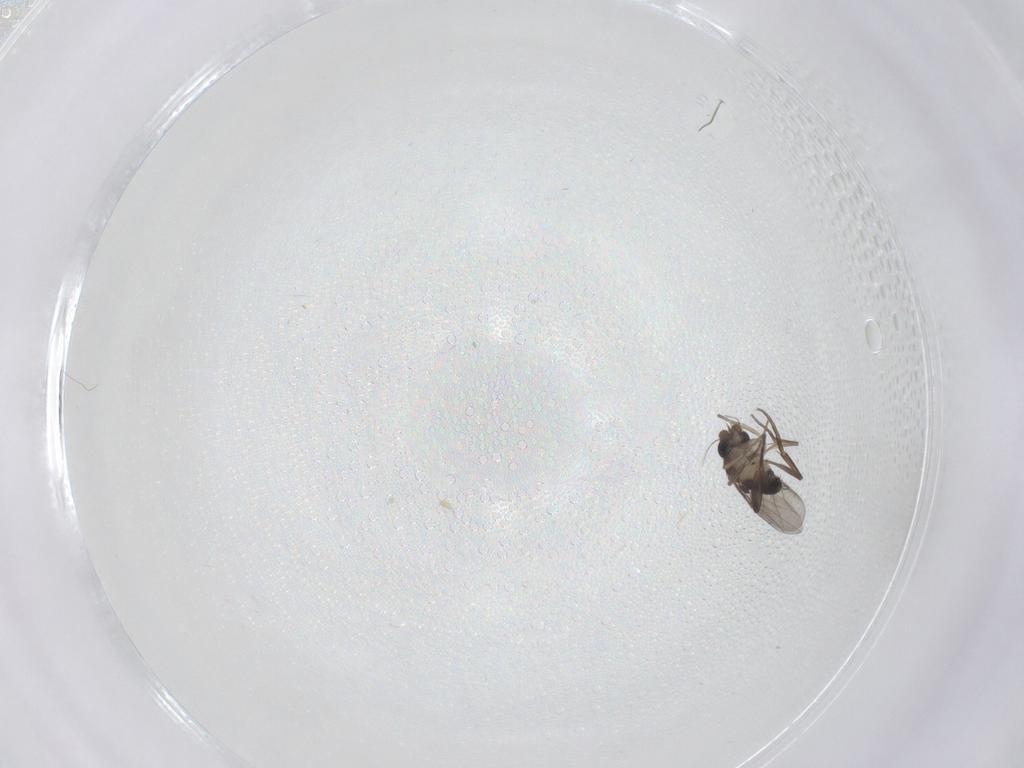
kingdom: Animalia
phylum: Arthropoda
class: Insecta
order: Diptera
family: Phoridae
